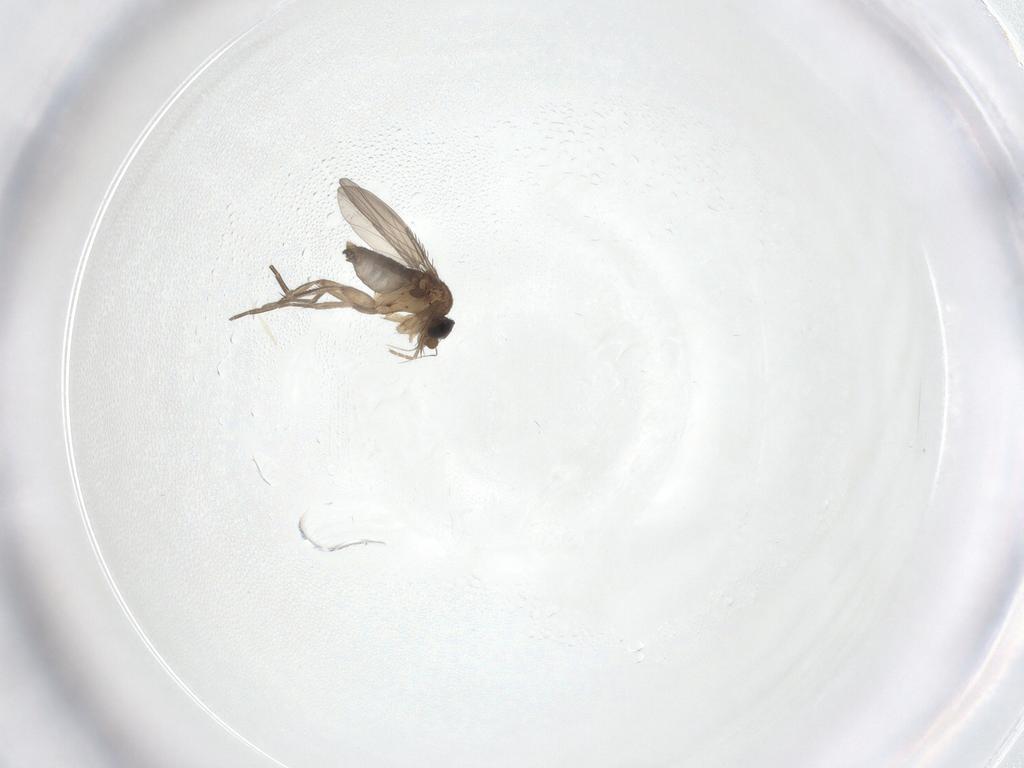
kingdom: Animalia
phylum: Arthropoda
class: Insecta
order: Diptera
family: Phoridae
